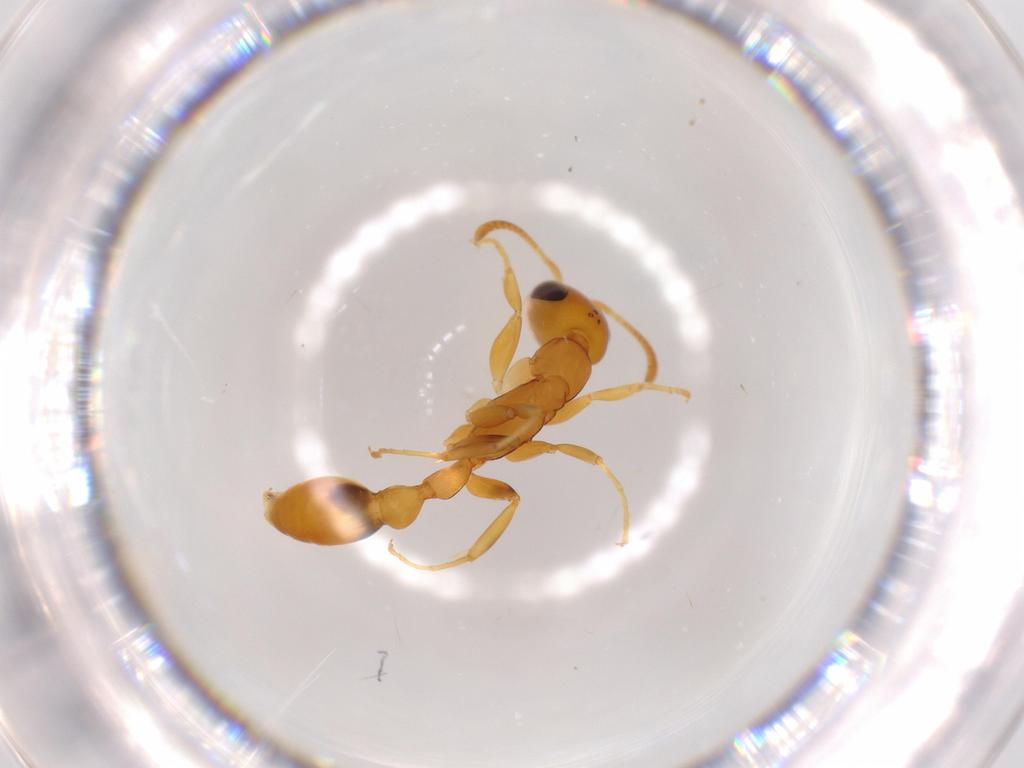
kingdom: Animalia
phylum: Arthropoda
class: Insecta
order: Hymenoptera
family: Formicidae
